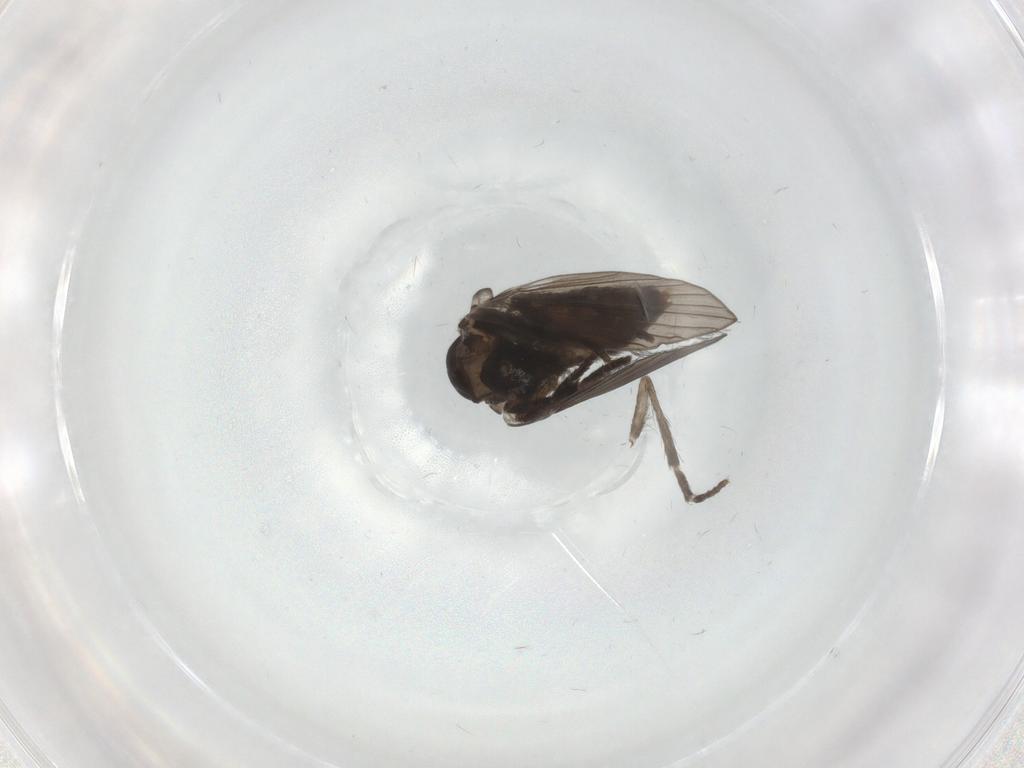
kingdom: Animalia
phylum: Arthropoda
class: Insecta
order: Diptera
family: Psychodidae
